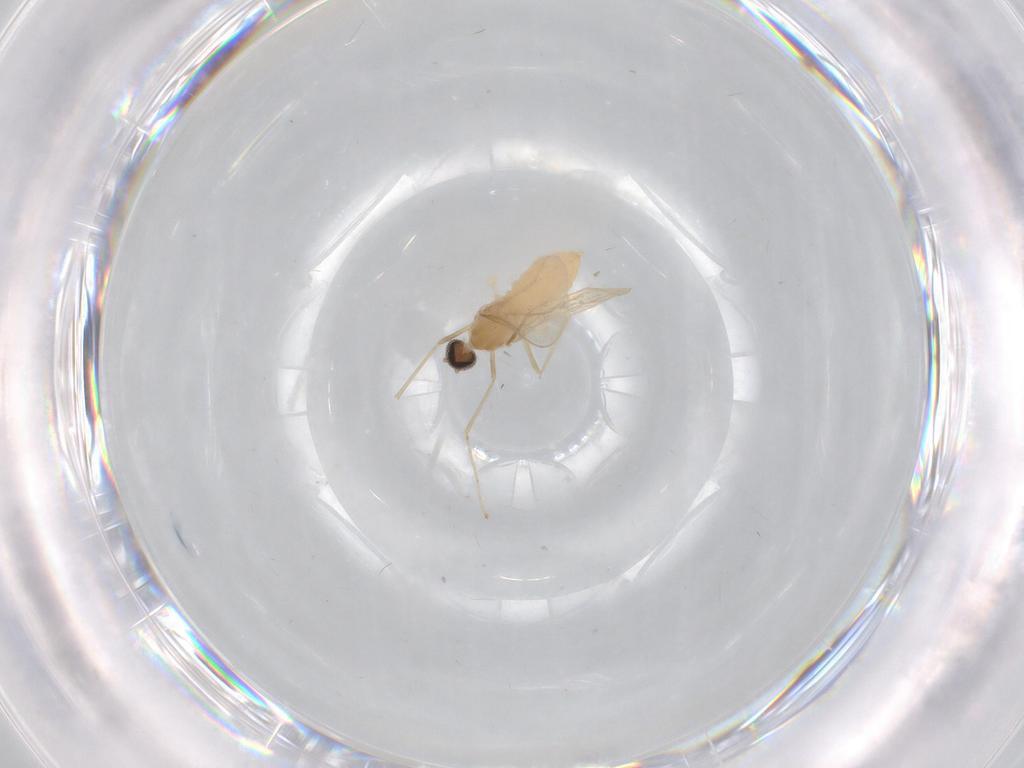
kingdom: Animalia
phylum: Arthropoda
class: Insecta
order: Diptera
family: Cecidomyiidae
